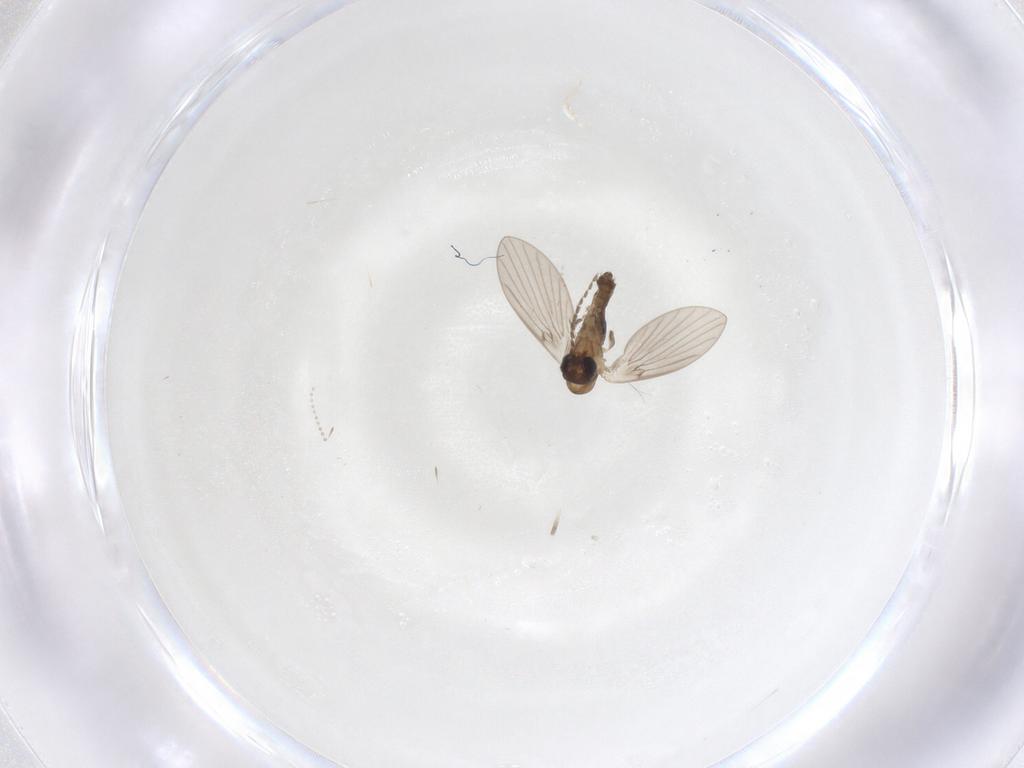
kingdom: Animalia
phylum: Arthropoda
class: Insecta
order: Diptera
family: Cecidomyiidae
